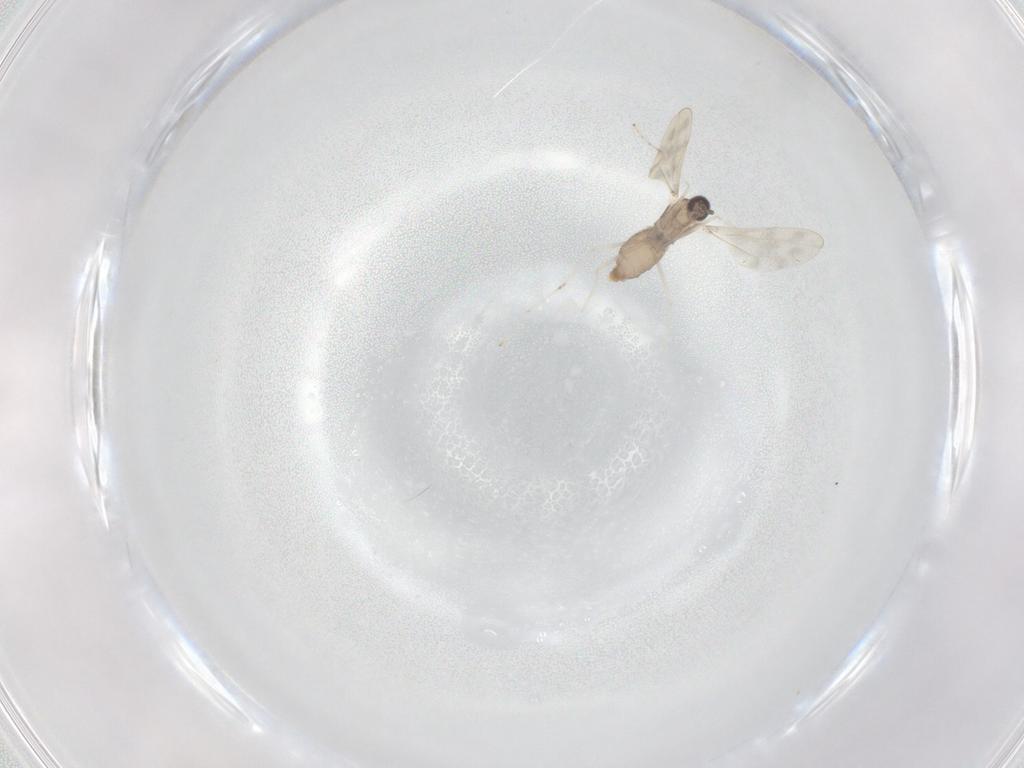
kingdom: Animalia
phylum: Arthropoda
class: Insecta
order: Diptera
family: Cecidomyiidae
